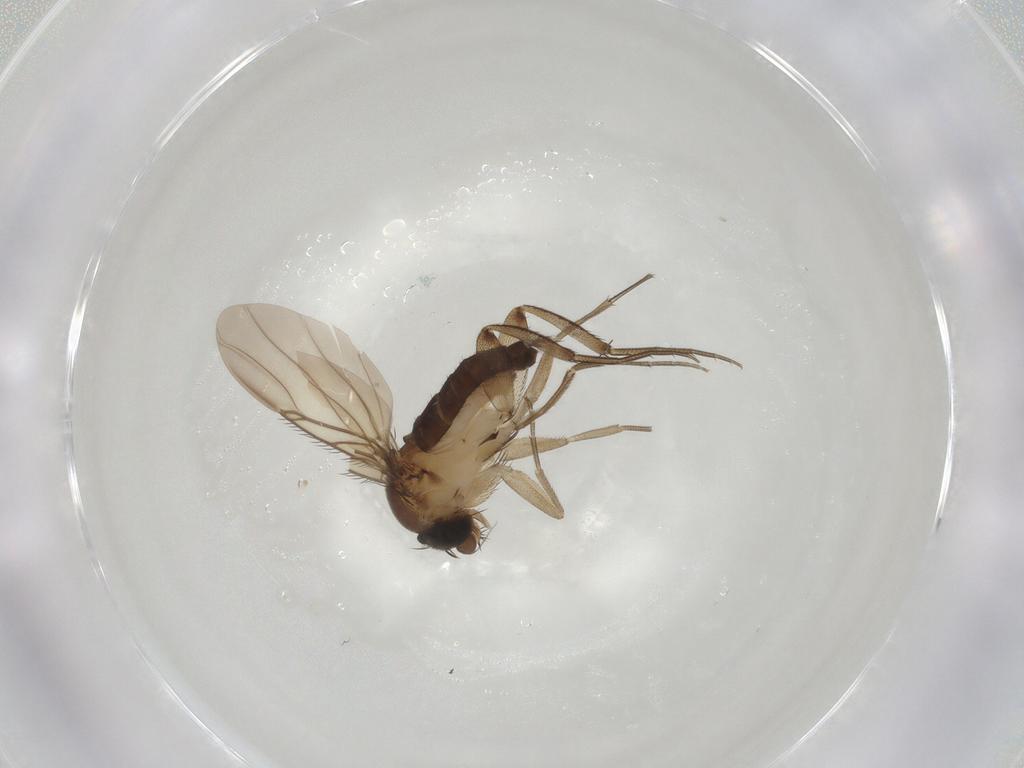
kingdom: Animalia
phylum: Arthropoda
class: Insecta
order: Diptera
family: Phoridae
